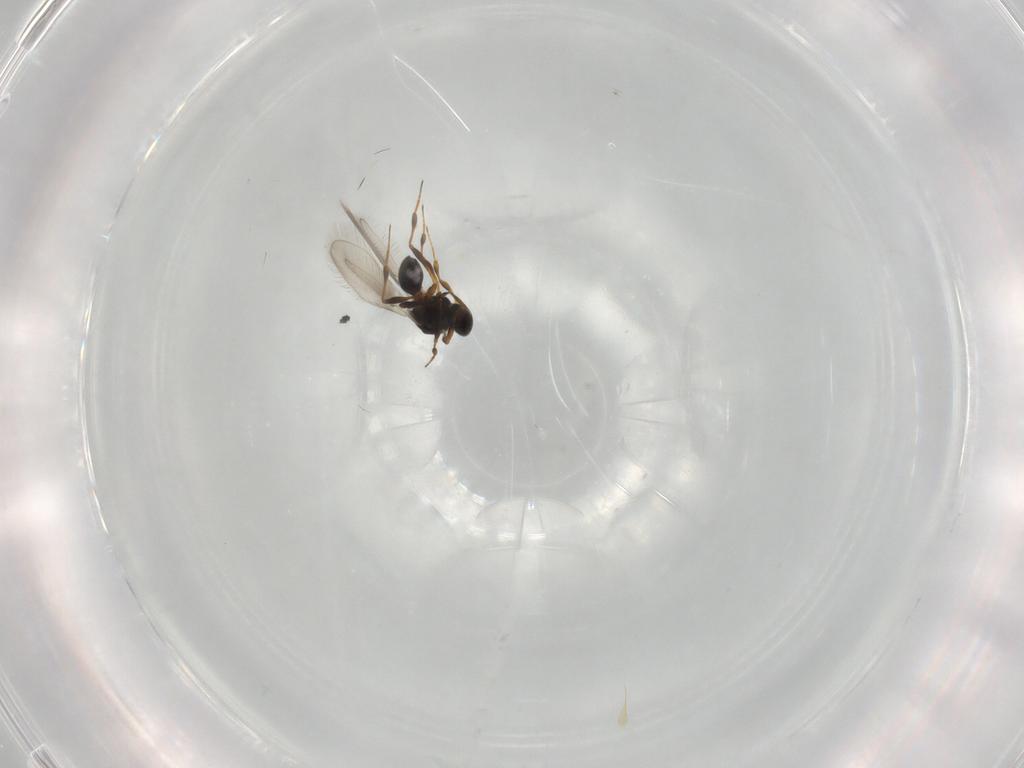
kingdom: Animalia
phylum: Arthropoda
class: Insecta
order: Hymenoptera
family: Platygastridae
